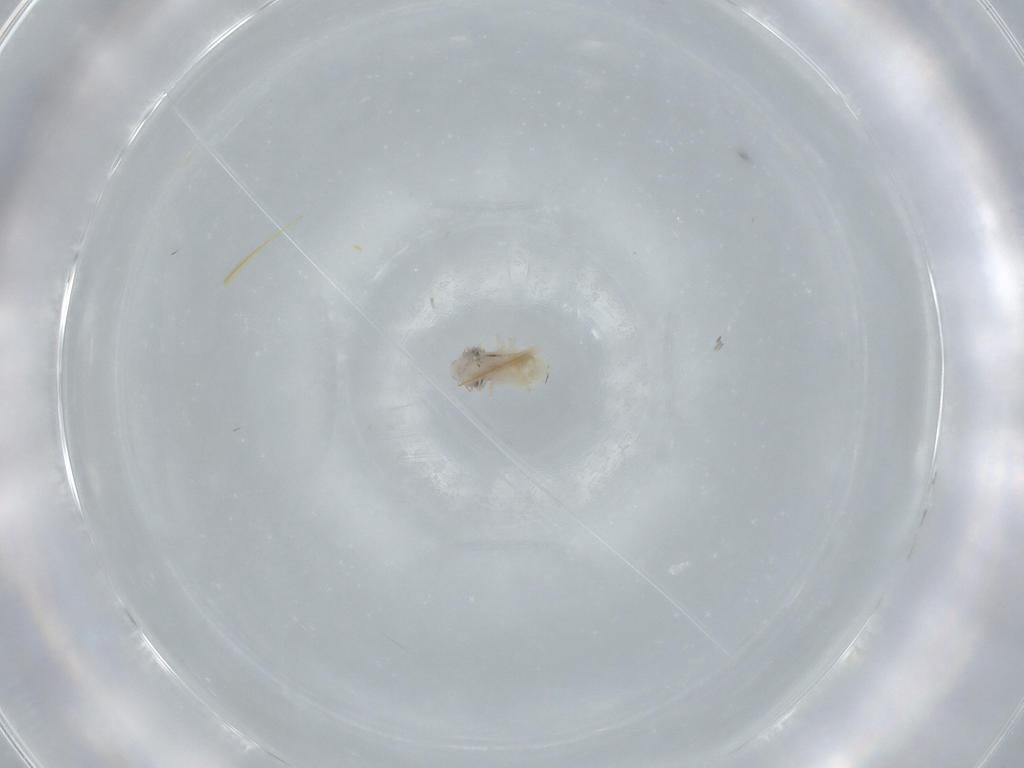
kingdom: Animalia
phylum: Arthropoda
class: Insecta
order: Psocodea
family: Lepidopsocidae
